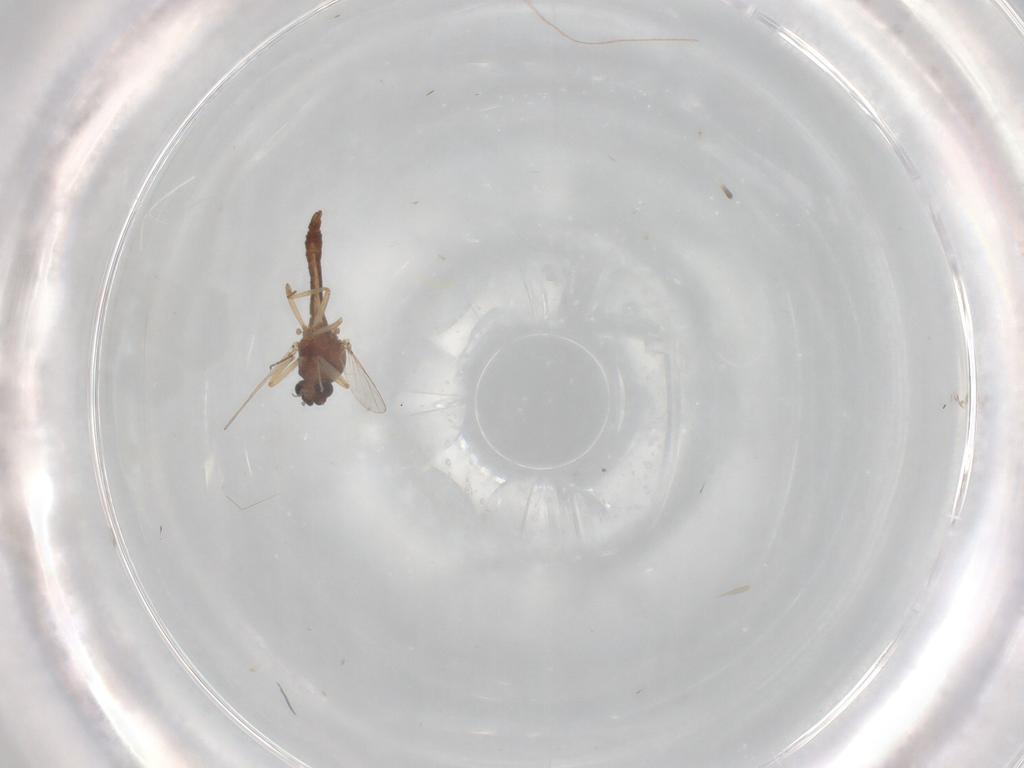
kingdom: Animalia
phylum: Arthropoda
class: Insecta
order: Diptera
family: Ceratopogonidae
